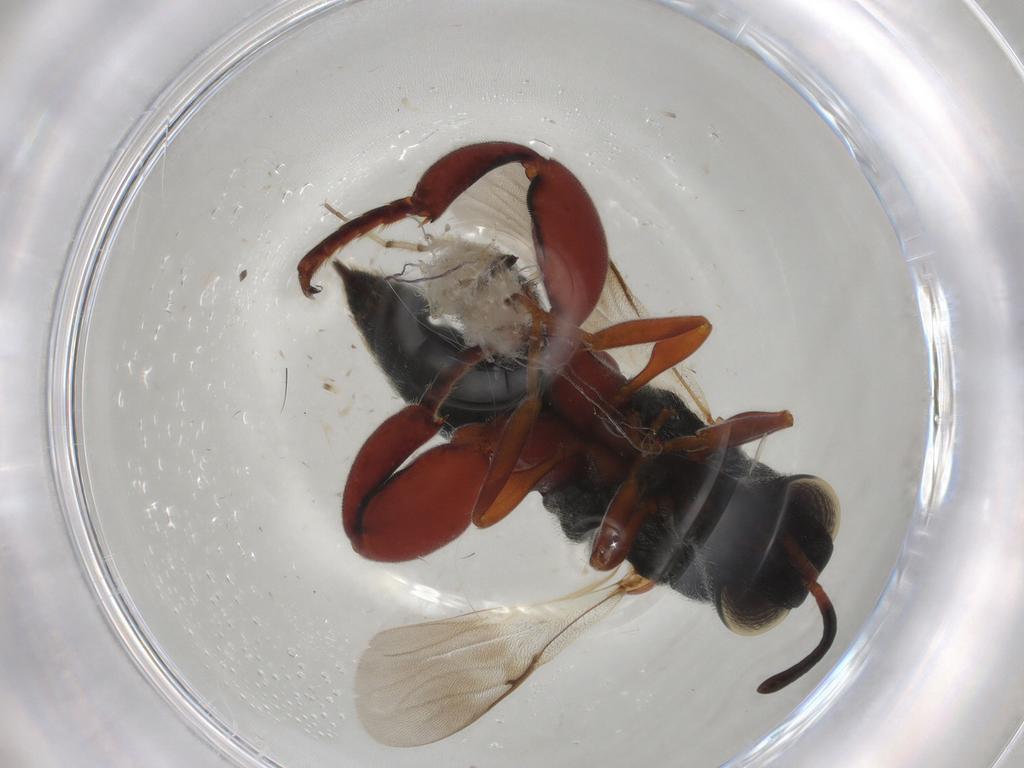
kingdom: Animalia
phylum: Arthropoda
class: Insecta
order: Hymenoptera
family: Chalcididae
